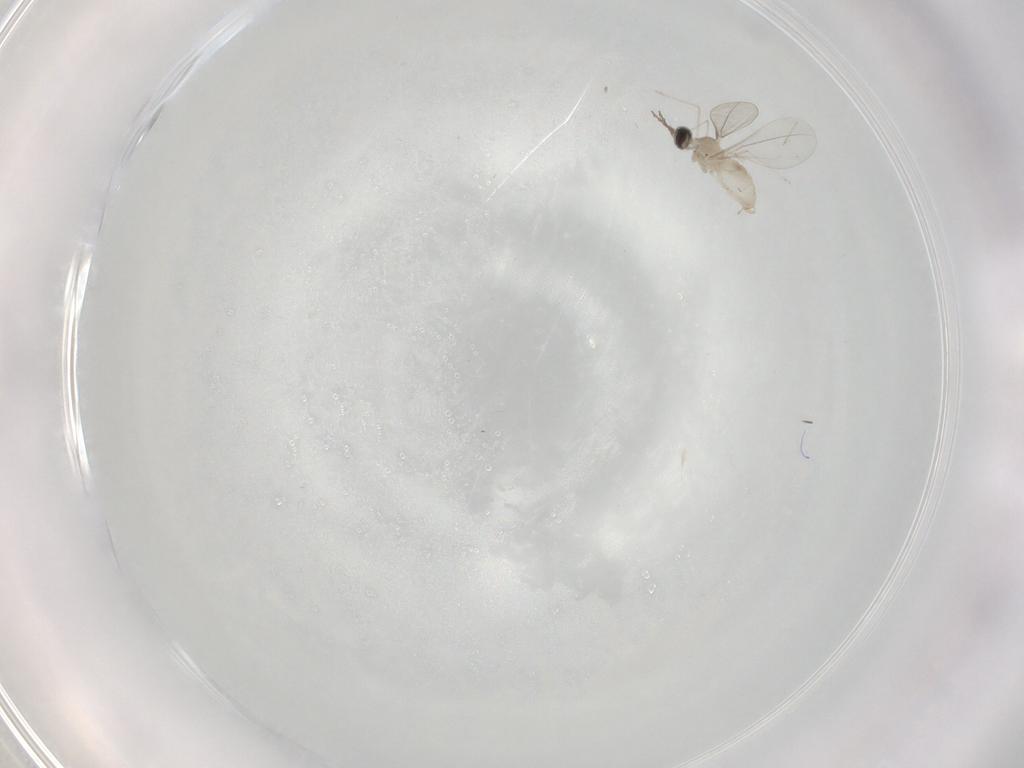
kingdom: Animalia
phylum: Arthropoda
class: Insecta
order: Diptera
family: Cecidomyiidae
